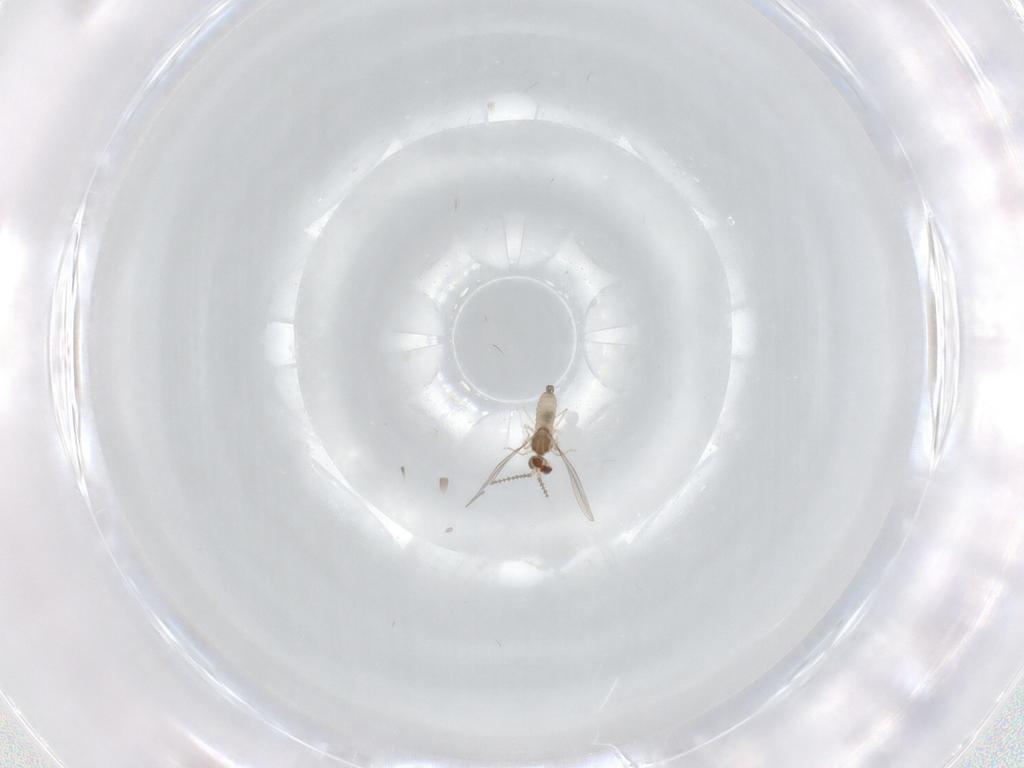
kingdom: Animalia
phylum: Arthropoda
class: Insecta
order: Diptera
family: Cecidomyiidae
